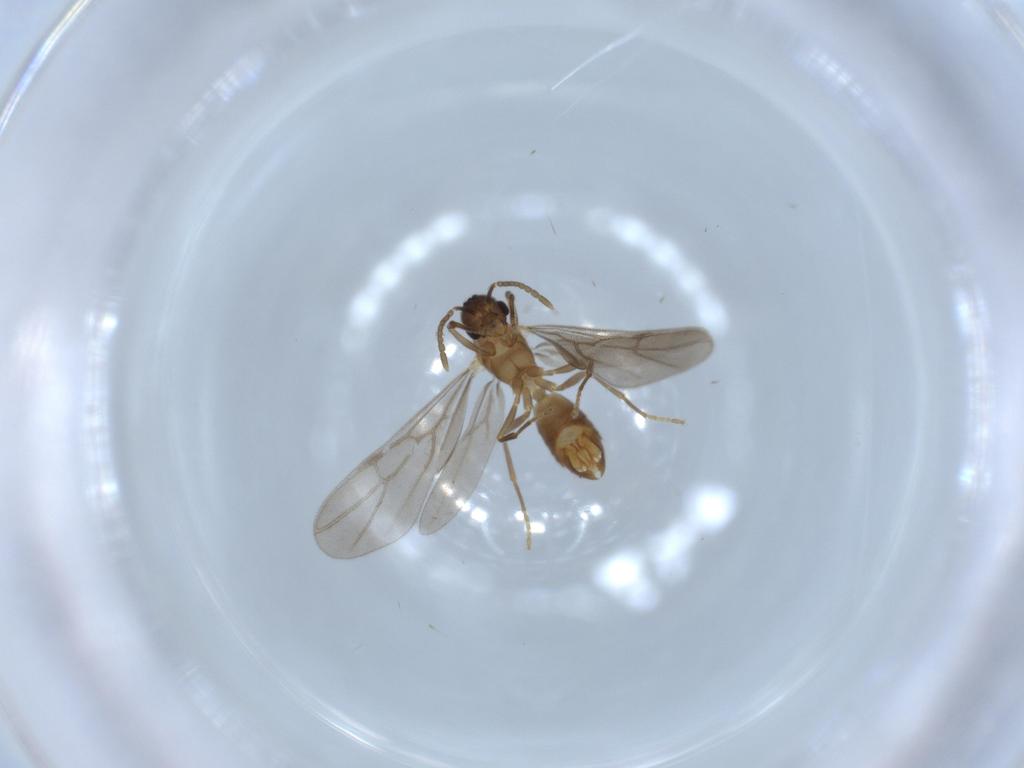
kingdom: Animalia
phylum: Arthropoda
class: Insecta
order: Hymenoptera
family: Formicidae
